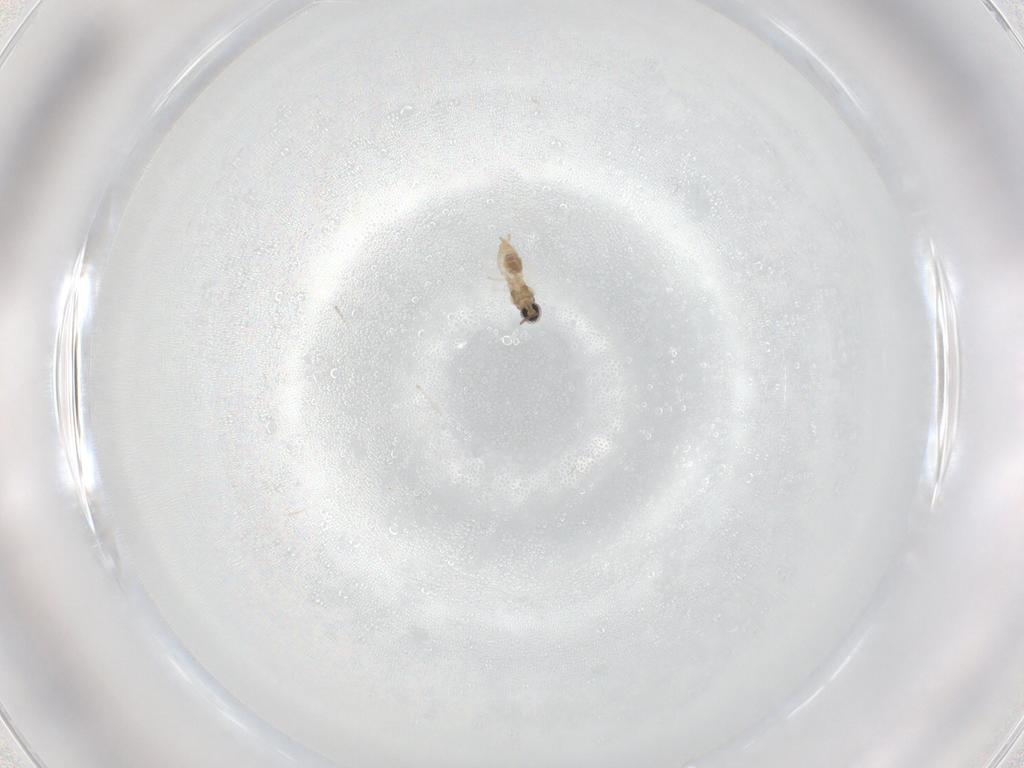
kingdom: Animalia
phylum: Arthropoda
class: Insecta
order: Diptera
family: Cecidomyiidae
